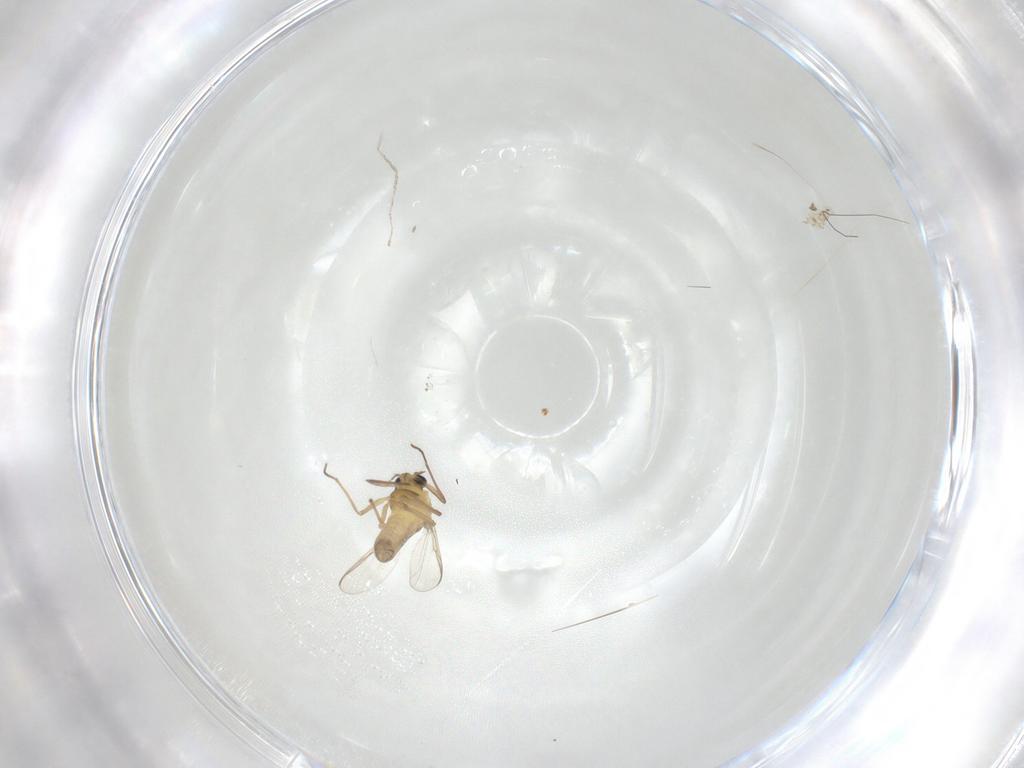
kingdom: Animalia
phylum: Arthropoda
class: Insecta
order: Diptera
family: Chironomidae
